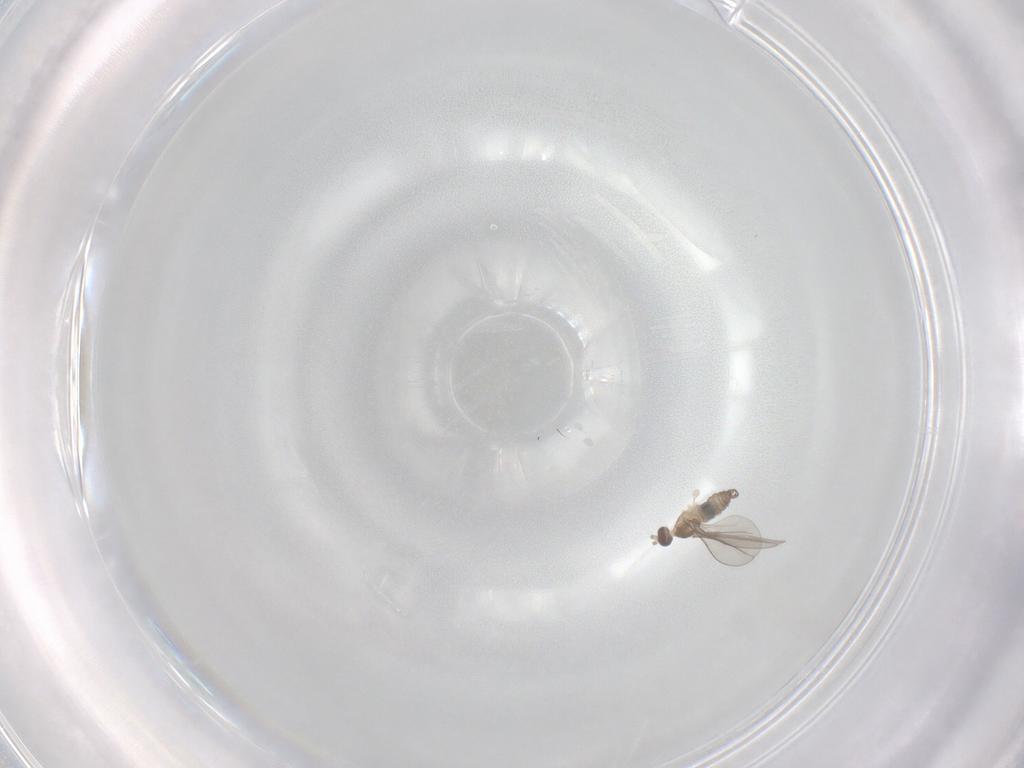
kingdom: Animalia
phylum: Arthropoda
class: Insecta
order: Diptera
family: Cecidomyiidae
